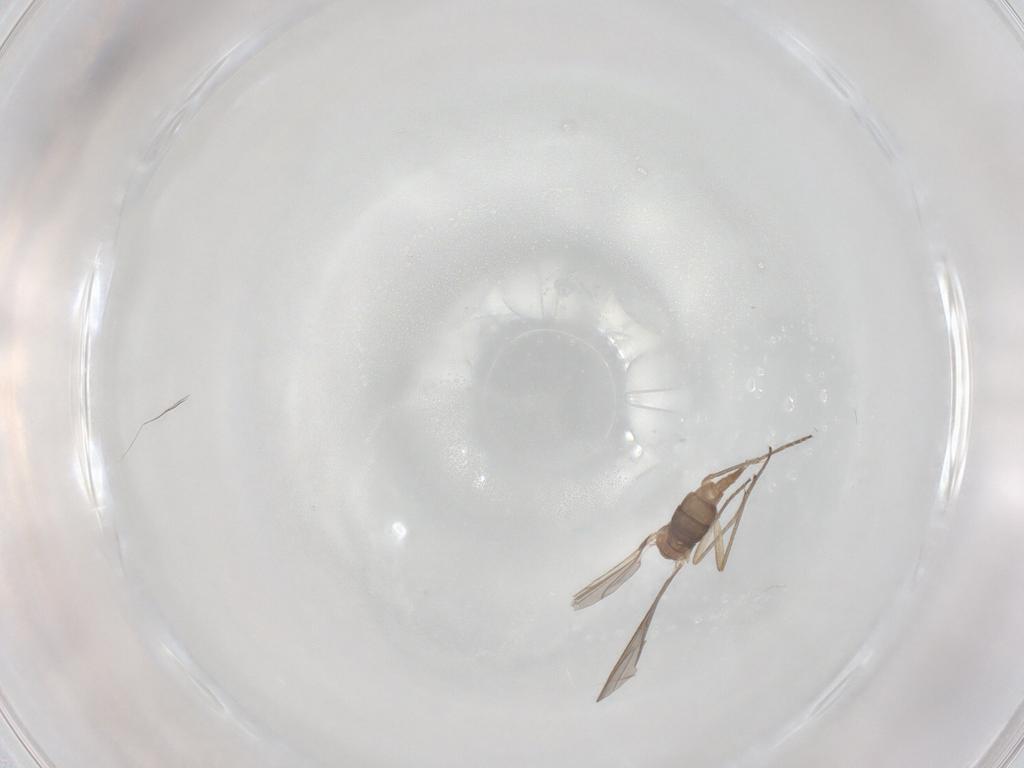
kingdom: Animalia
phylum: Arthropoda
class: Insecta
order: Diptera
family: Sciaridae
